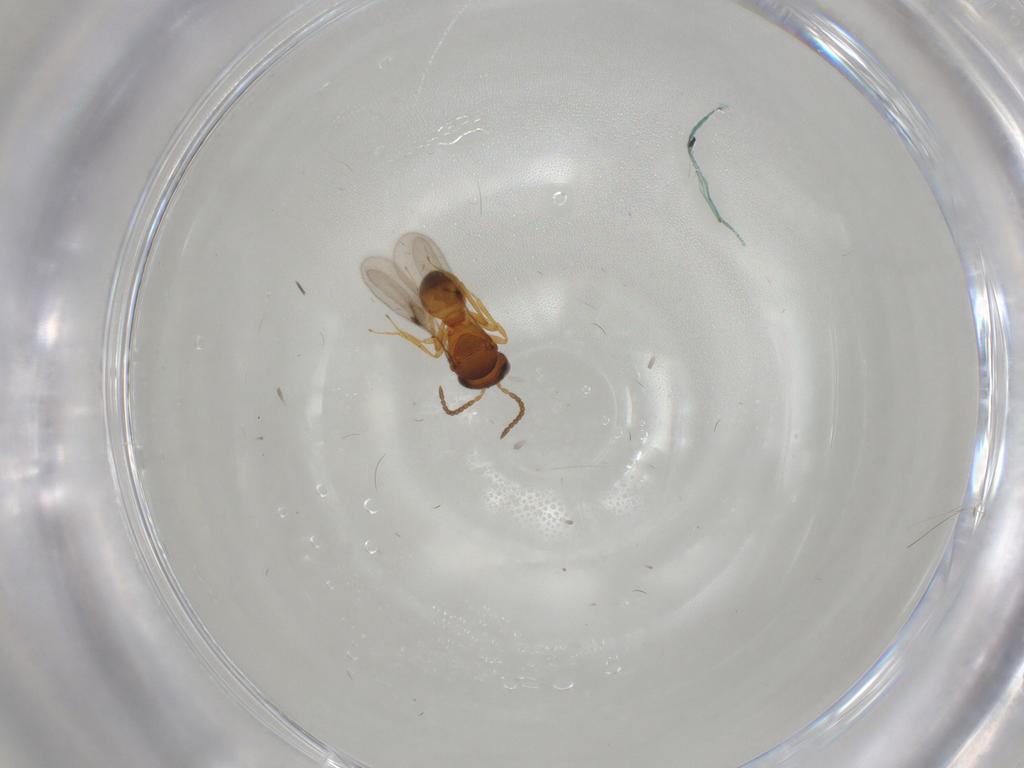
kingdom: Animalia
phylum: Arthropoda
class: Insecta
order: Hymenoptera
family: Scelionidae
